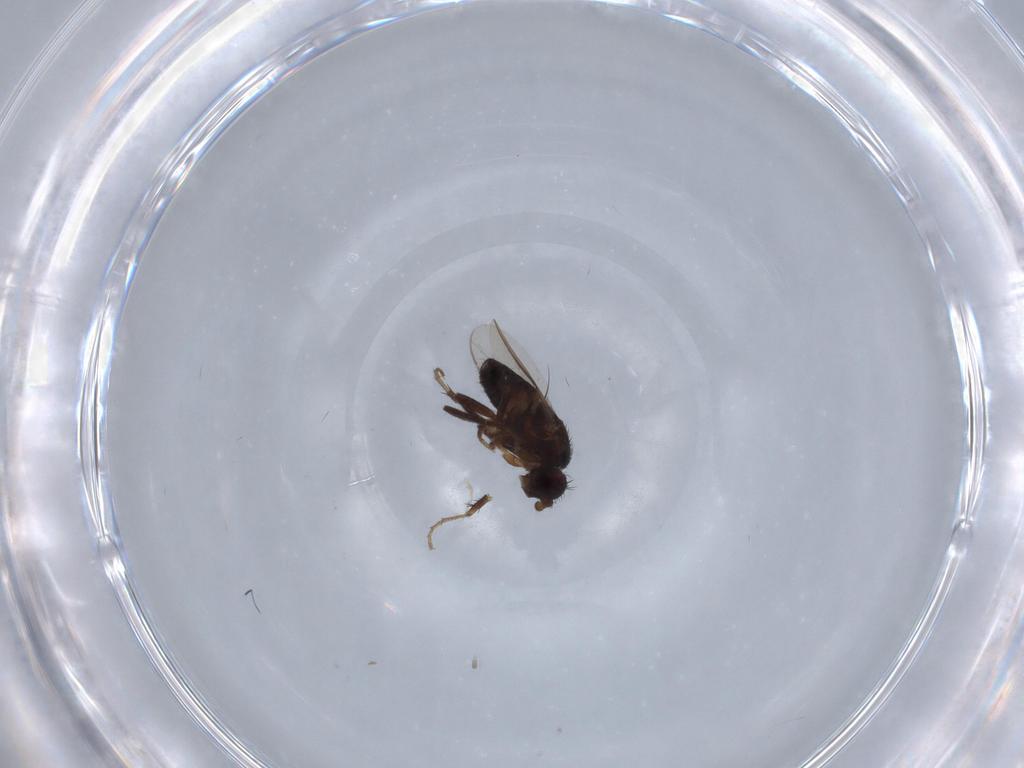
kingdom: Animalia
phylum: Arthropoda
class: Insecta
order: Diptera
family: Sphaeroceridae
